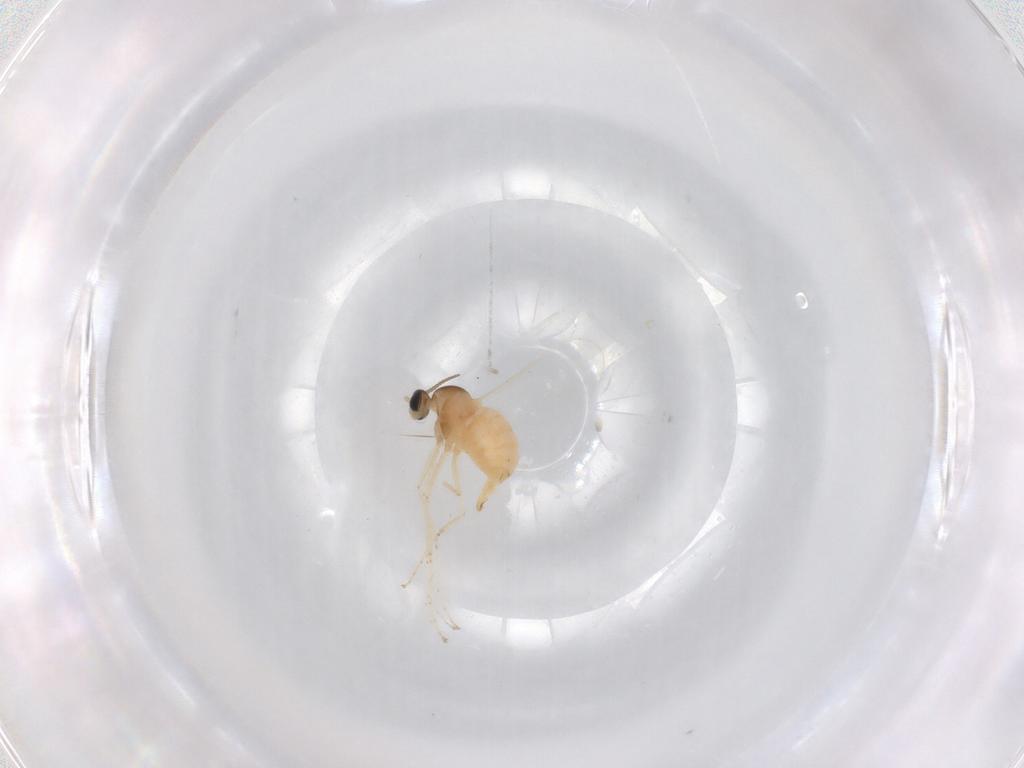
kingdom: Animalia
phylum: Arthropoda
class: Insecta
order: Diptera
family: Cecidomyiidae
